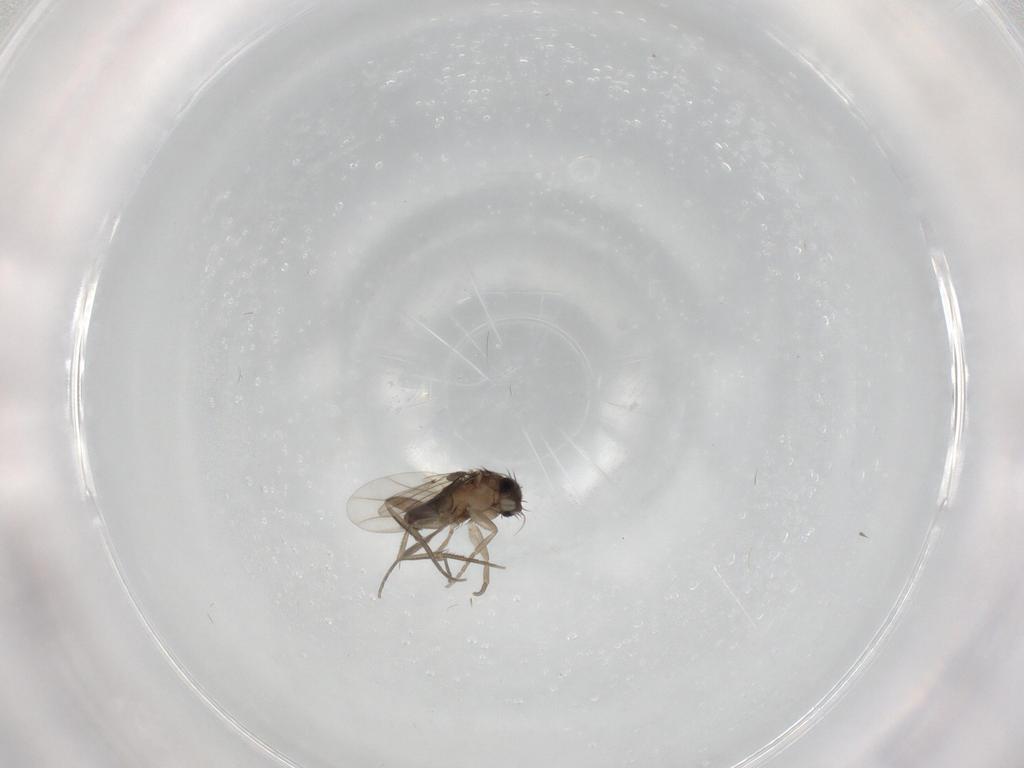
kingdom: Animalia
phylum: Arthropoda
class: Insecta
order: Diptera
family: Phoridae
